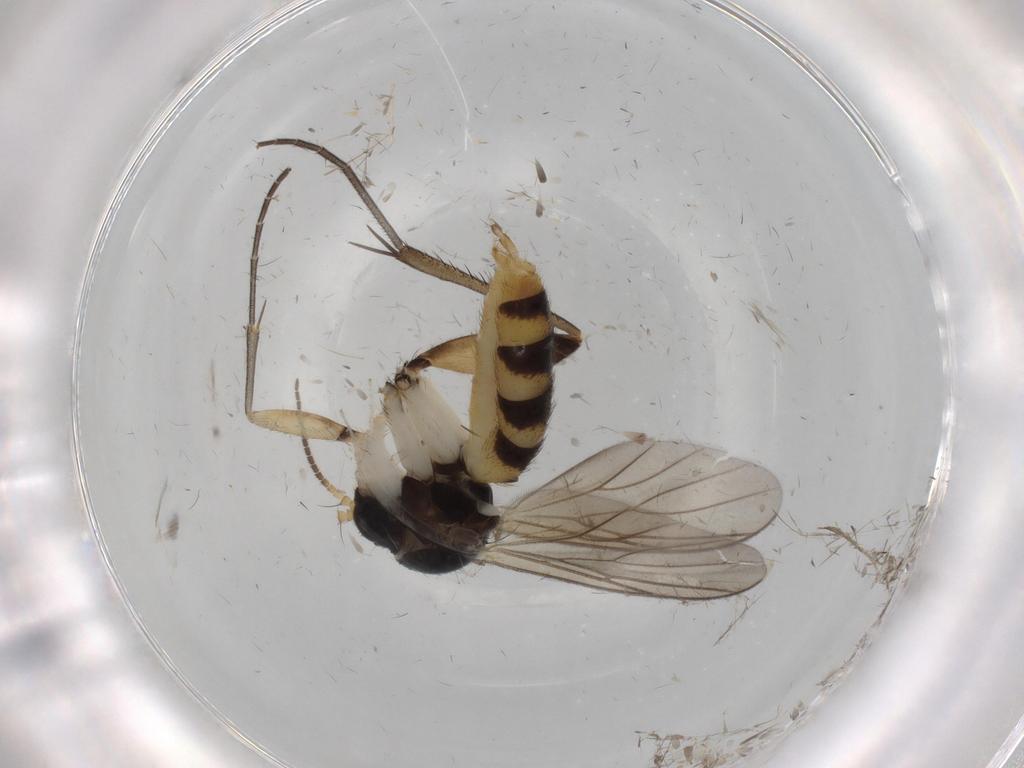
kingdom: Animalia
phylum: Arthropoda
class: Insecta
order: Diptera
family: Mycetophilidae
